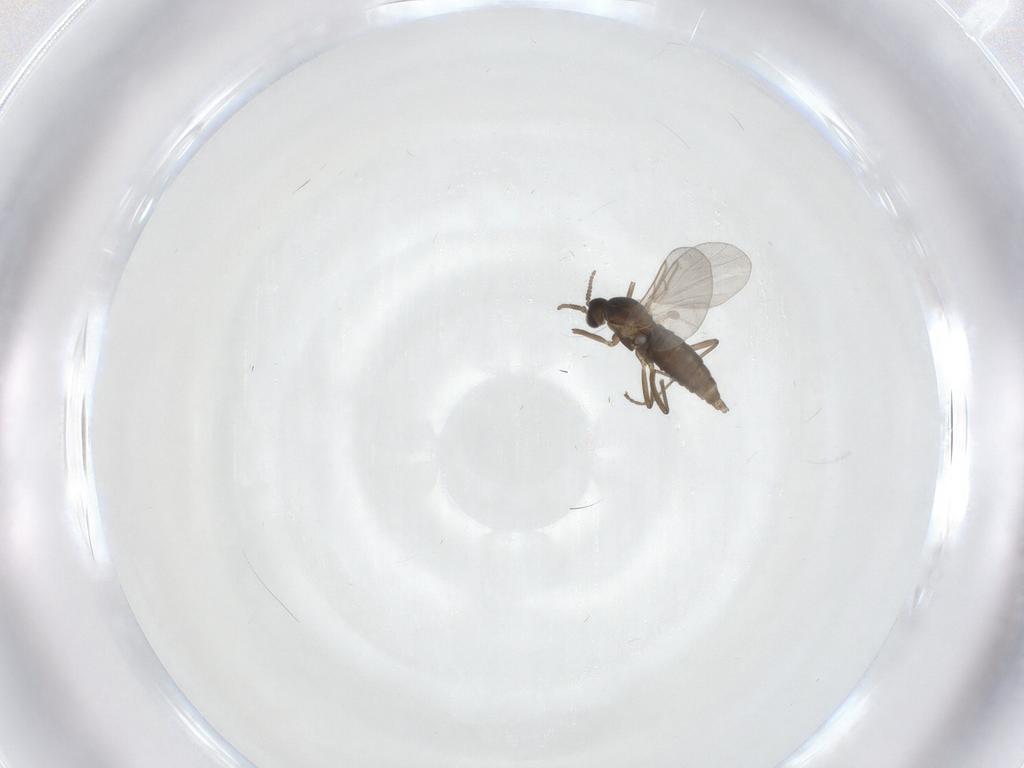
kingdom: Animalia
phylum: Arthropoda
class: Insecta
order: Diptera
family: Cecidomyiidae
